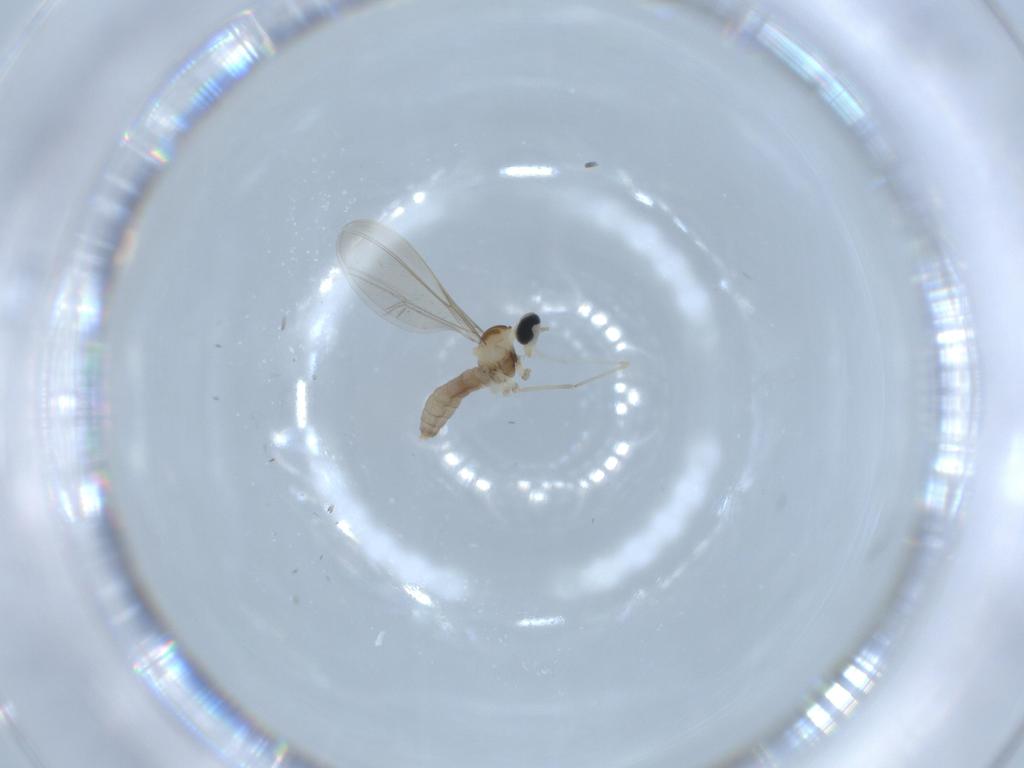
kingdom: Animalia
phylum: Arthropoda
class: Insecta
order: Diptera
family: Cecidomyiidae
